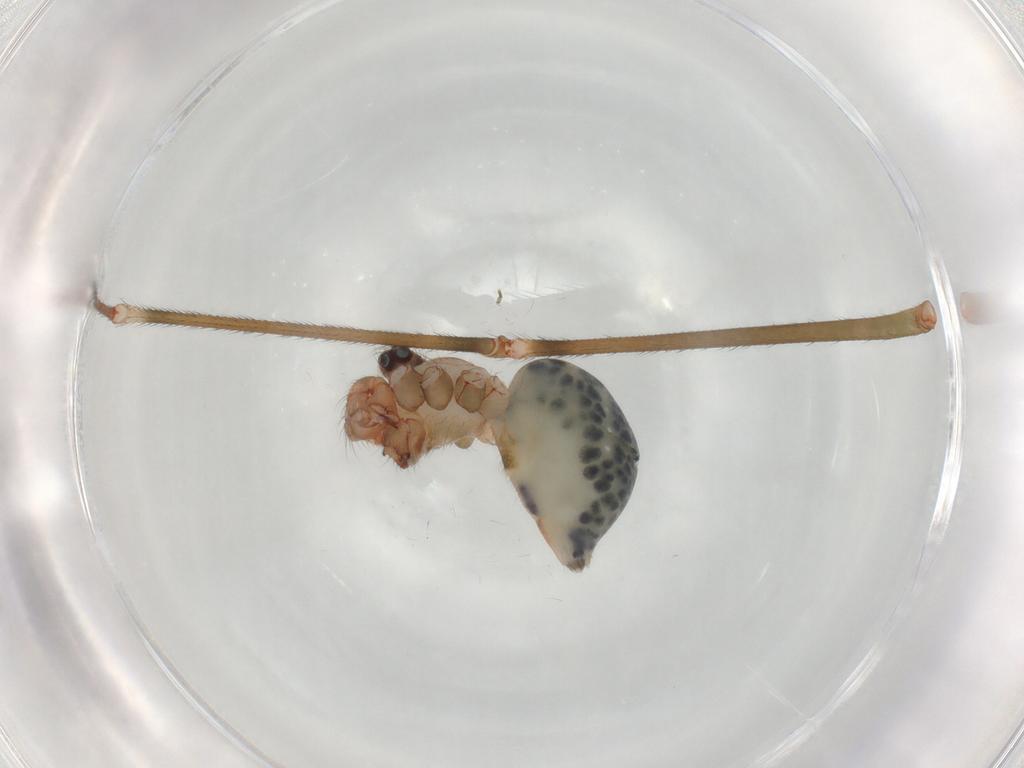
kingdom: Animalia
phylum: Arthropoda
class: Arachnida
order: Araneae
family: Pholcidae
